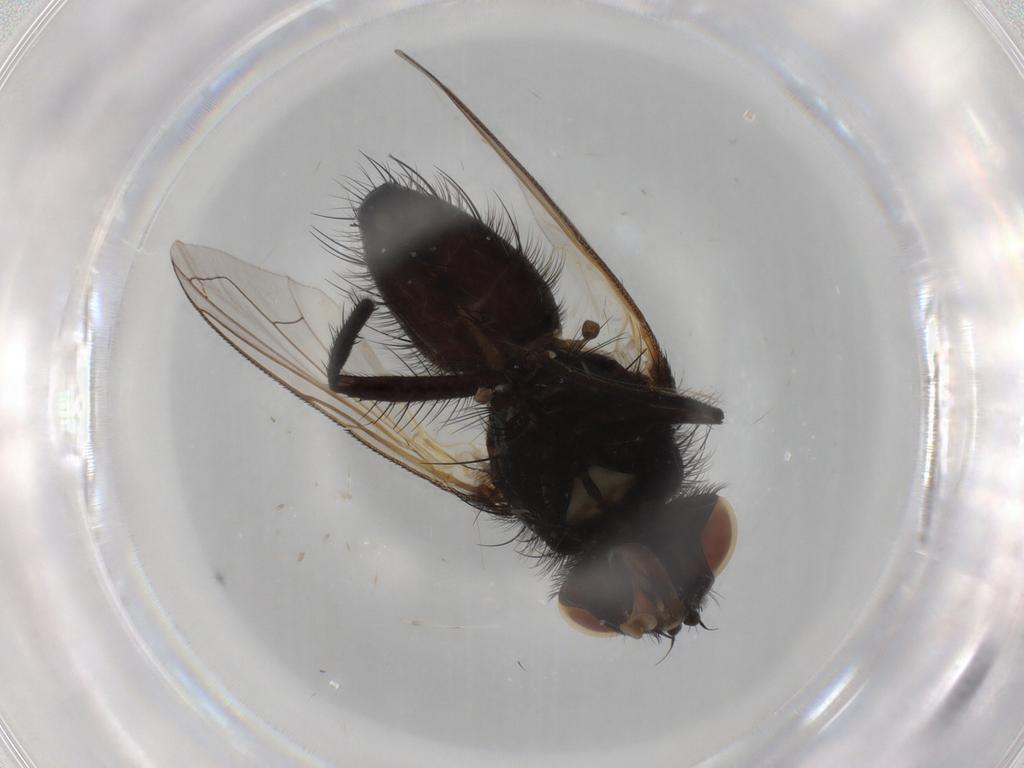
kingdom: Animalia
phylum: Arthropoda
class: Insecta
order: Diptera
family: Tachinidae
